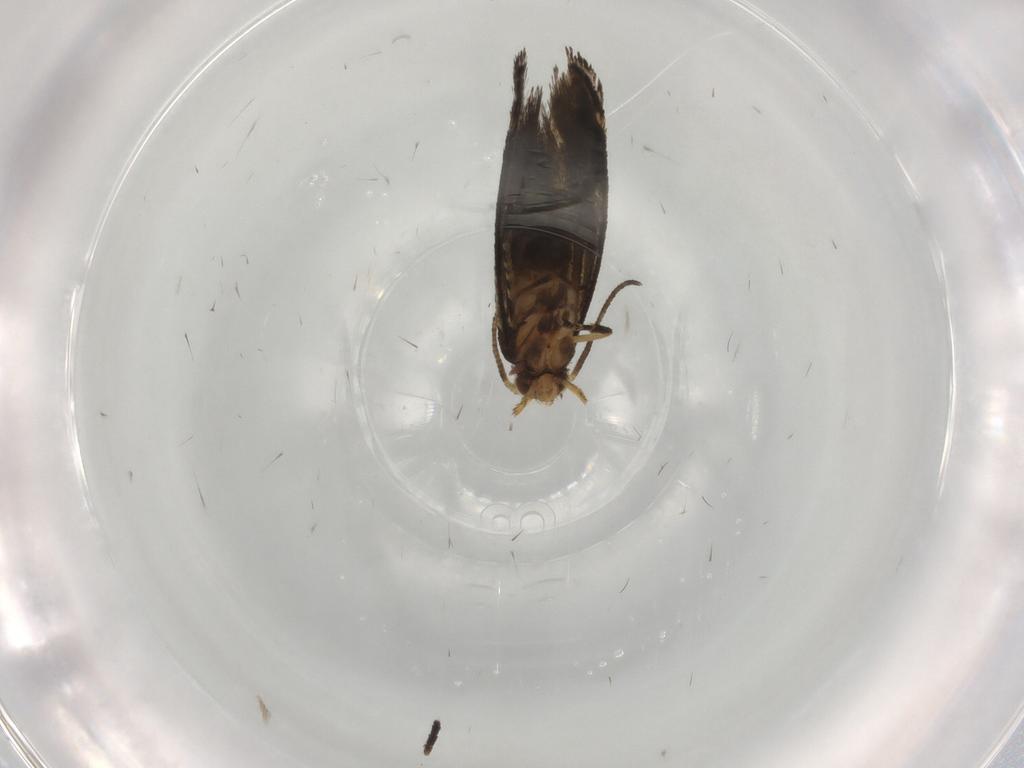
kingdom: Animalia
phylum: Arthropoda
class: Insecta
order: Lepidoptera
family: Tineidae
